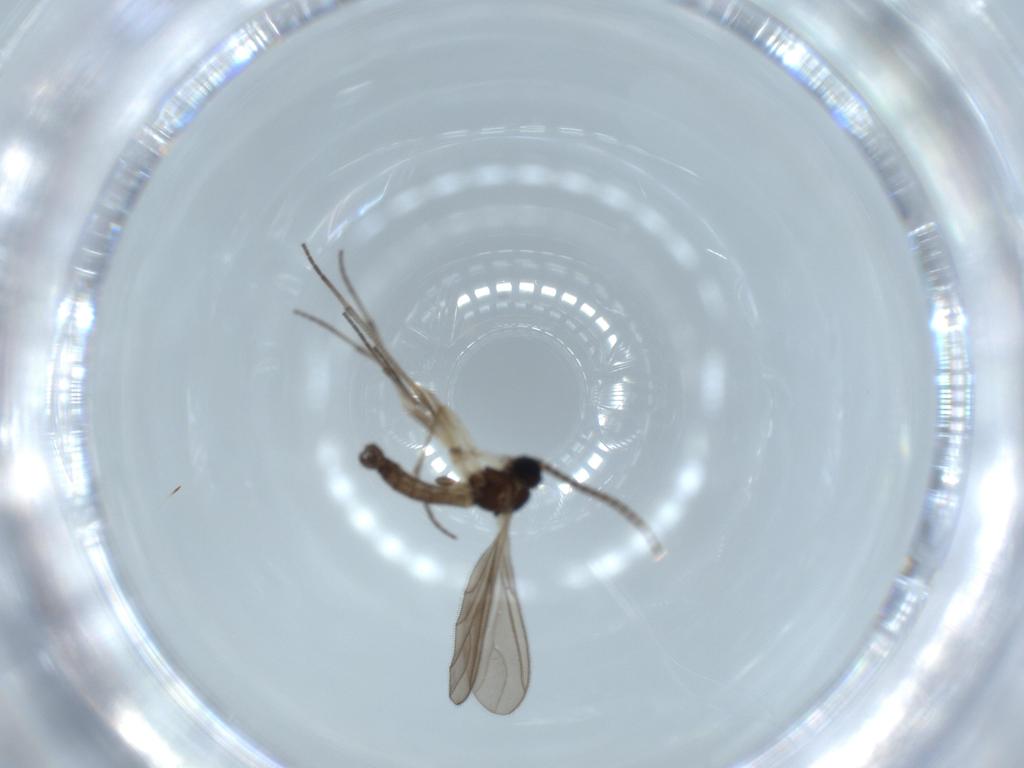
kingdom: Animalia
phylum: Arthropoda
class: Insecta
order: Diptera
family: Sciaridae
